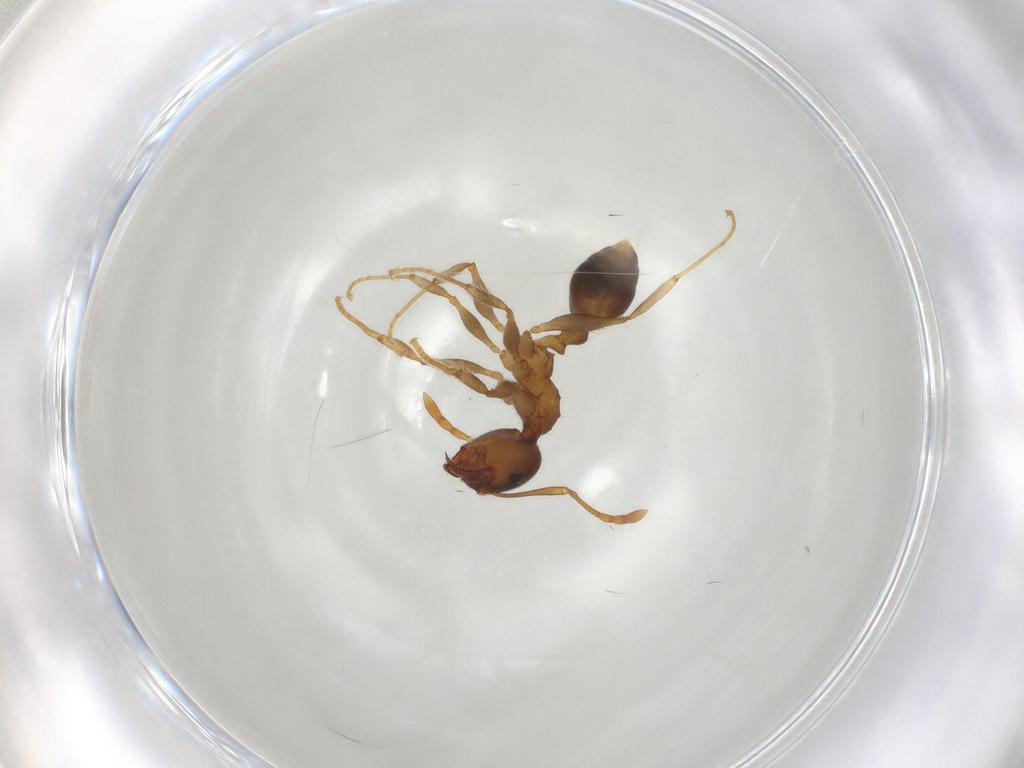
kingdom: Animalia
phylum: Arthropoda
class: Insecta
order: Hymenoptera
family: Formicidae
